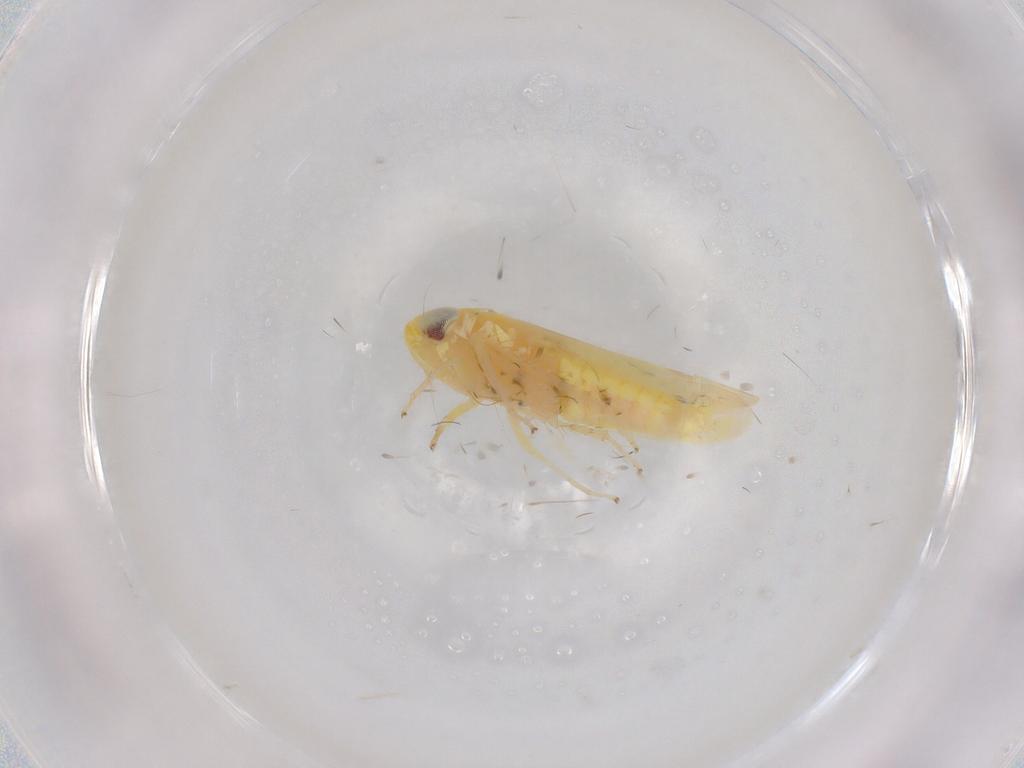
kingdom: Animalia
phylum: Arthropoda
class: Insecta
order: Hemiptera
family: Cicadellidae
